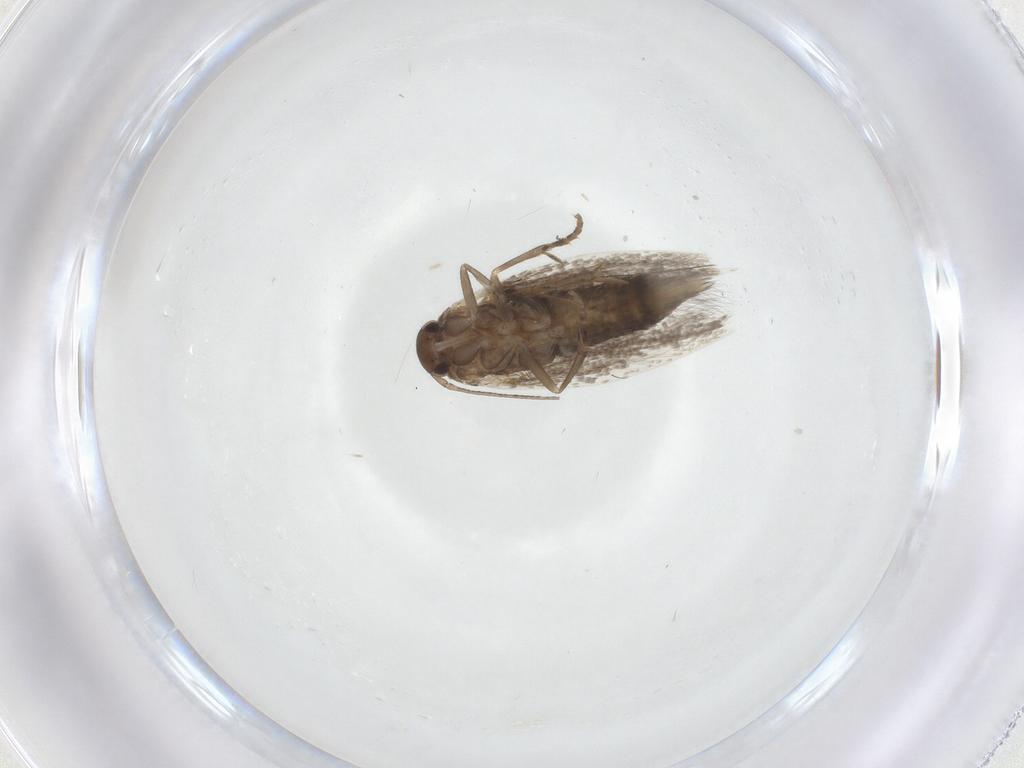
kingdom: Animalia
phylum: Arthropoda
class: Insecta
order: Lepidoptera
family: Elachistidae
